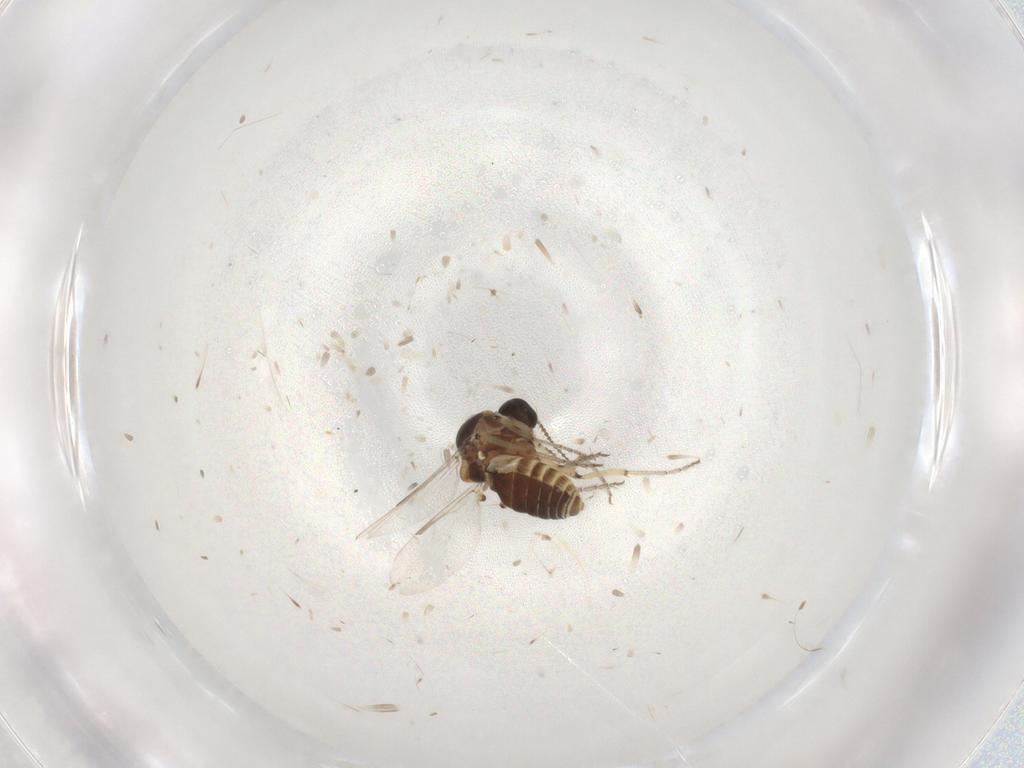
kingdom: Animalia
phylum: Arthropoda
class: Insecta
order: Diptera
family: Ceratopogonidae
